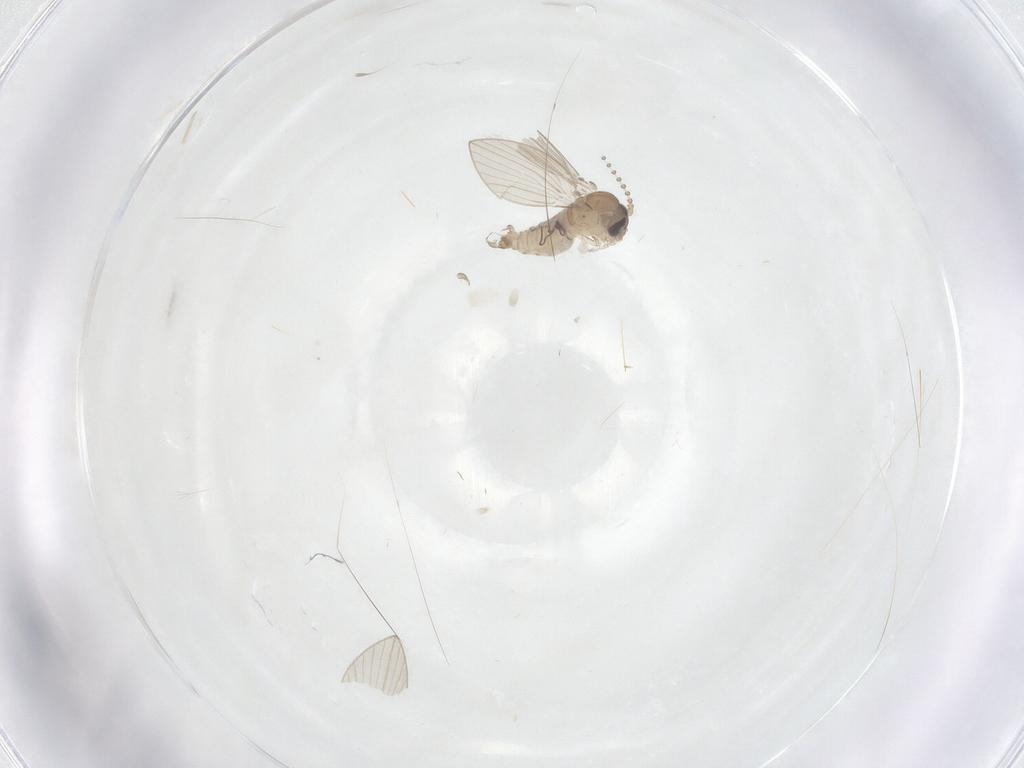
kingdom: Animalia
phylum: Arthropoda
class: Insecta
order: Diptera
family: Psychodidae
